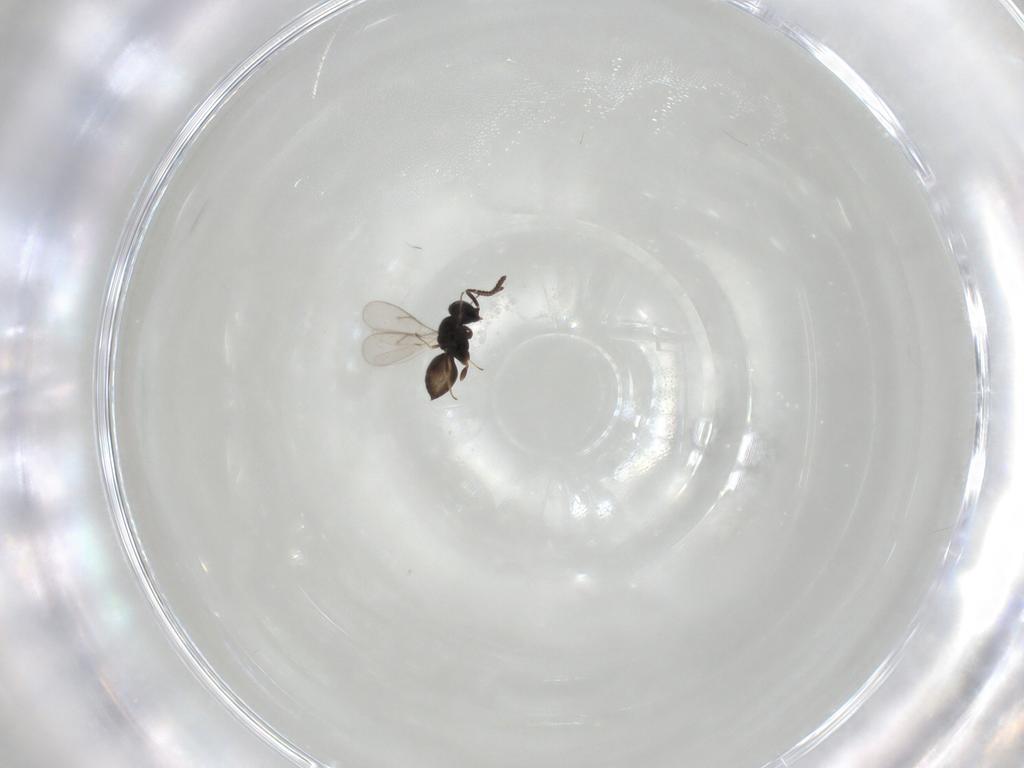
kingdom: Animalia
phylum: Arthropoda
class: Insecta
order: Hymenoptera
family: Scelionidae
